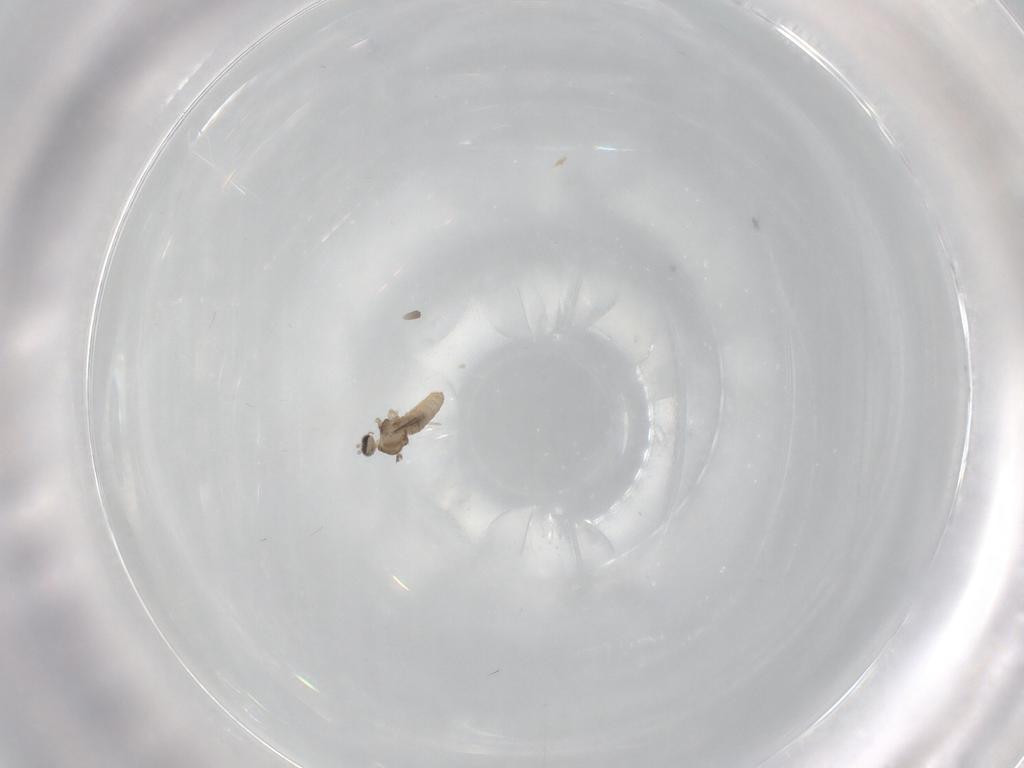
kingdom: Animalia
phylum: Arthropoda
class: Insecta
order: Diptera
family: Cecidomyiidae
